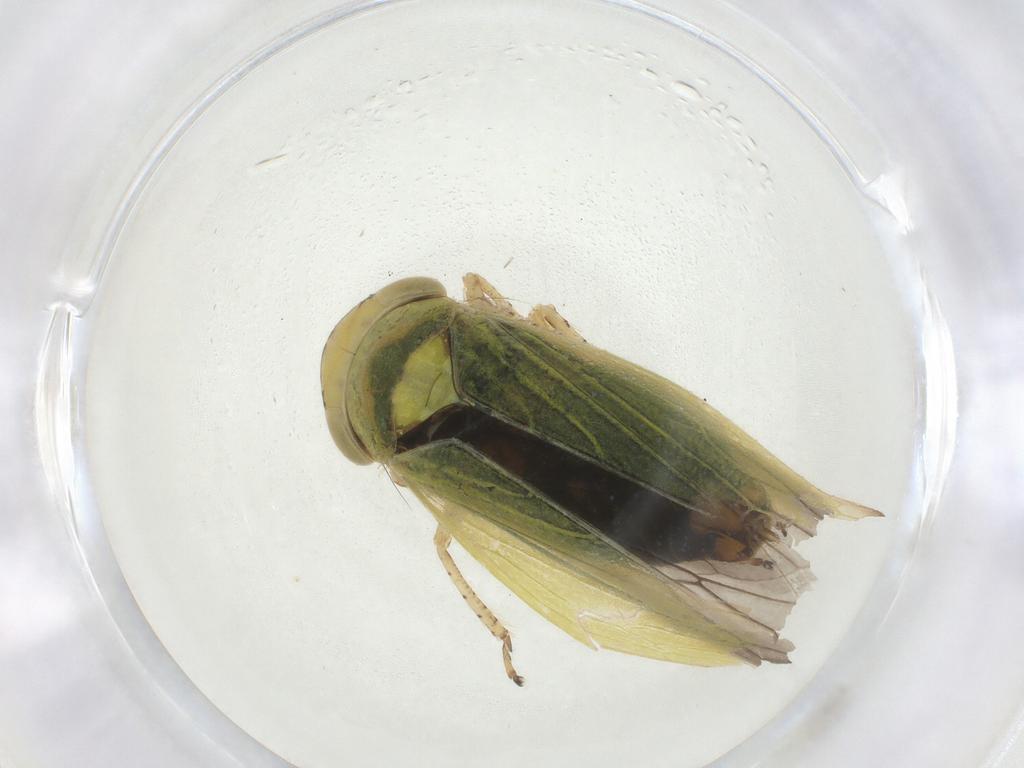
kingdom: Animalia
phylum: Arthropoda
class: Insecta
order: Hemiptera
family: Cicadellidae
